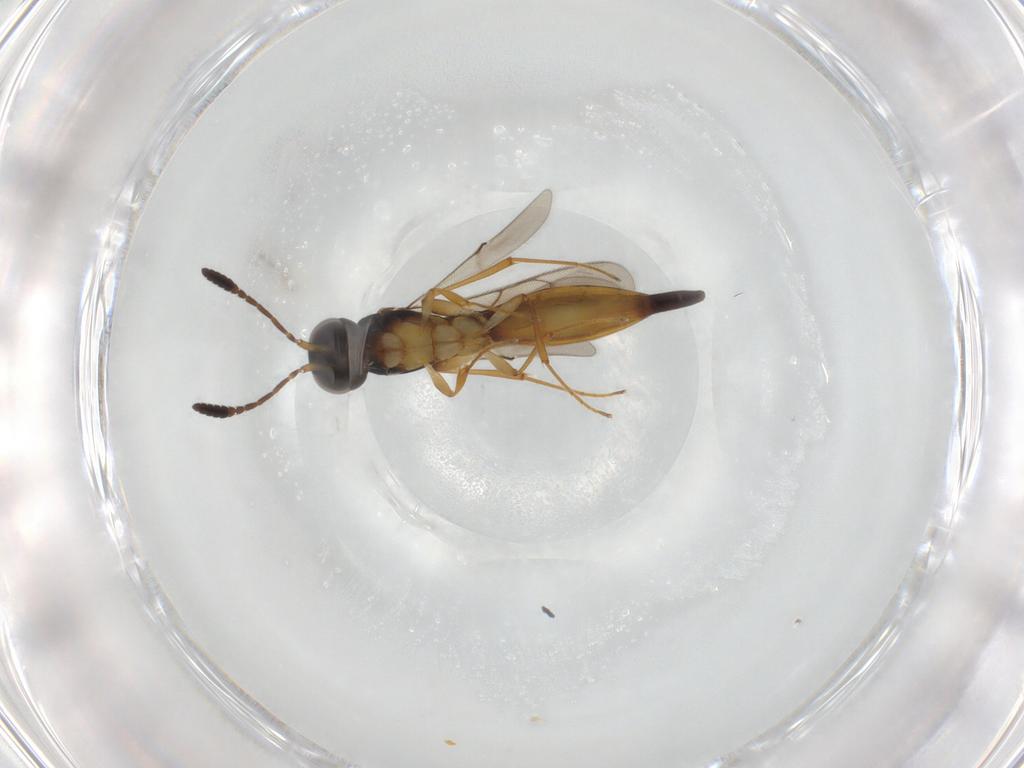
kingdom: Animalia
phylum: Arthropoda
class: Insecta
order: Hymenoptera
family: Scelionidae
